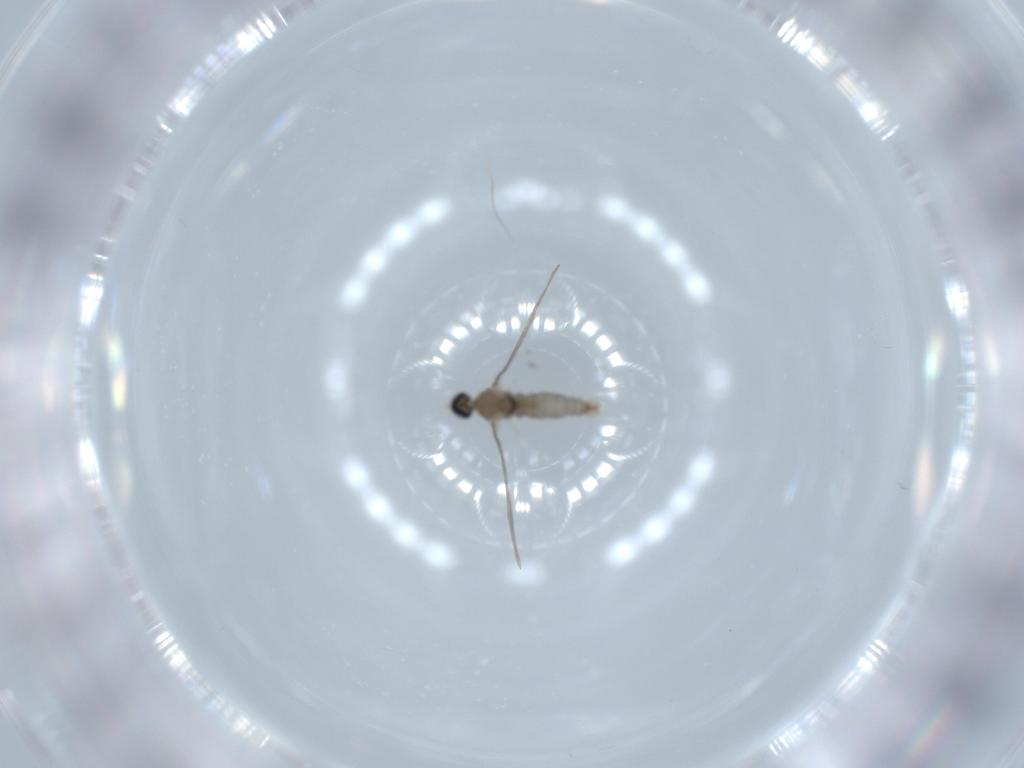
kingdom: Animalia
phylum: Arthropoda
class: Insecta
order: Diptera
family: Cecidomyiidae
